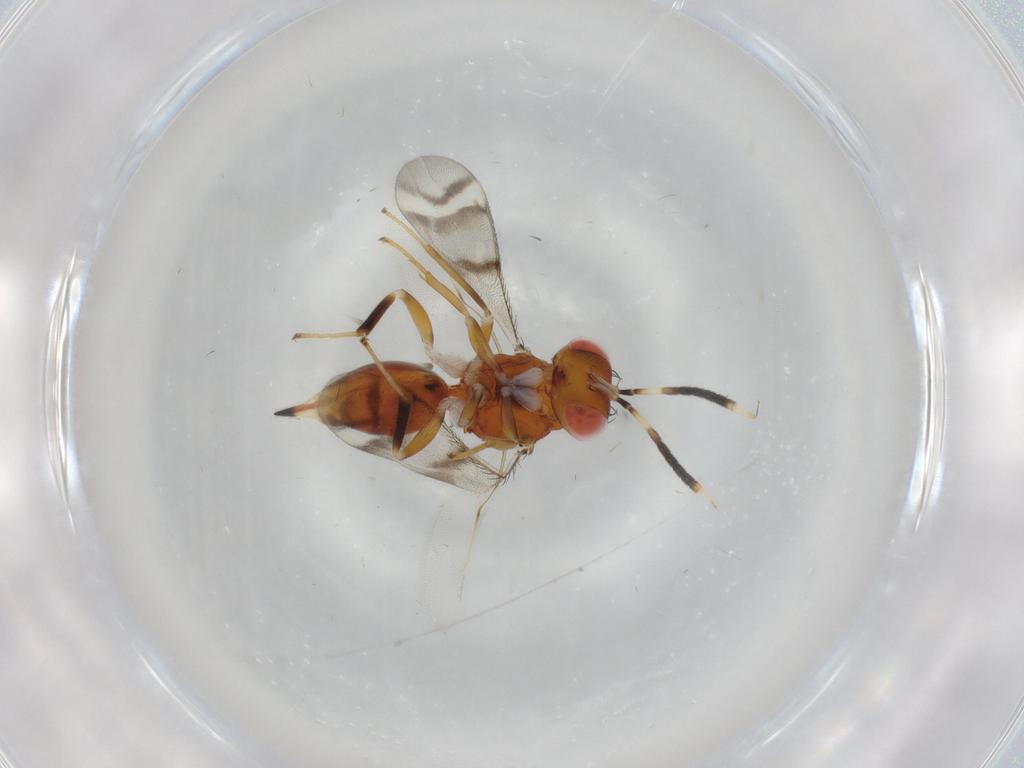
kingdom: Animalia
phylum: Arthropoda
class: Insecta
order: Hymenoptera
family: Diparidae
